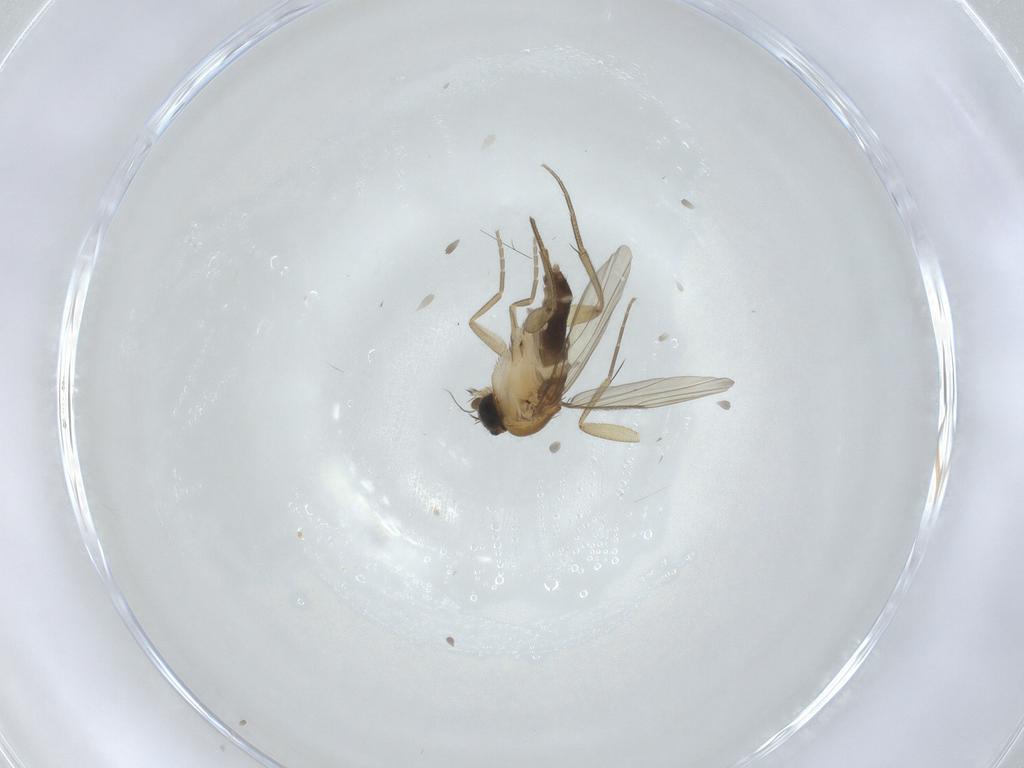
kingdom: Animalia
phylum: Arthropoda
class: Insecta
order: Diptera
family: Phoridae
